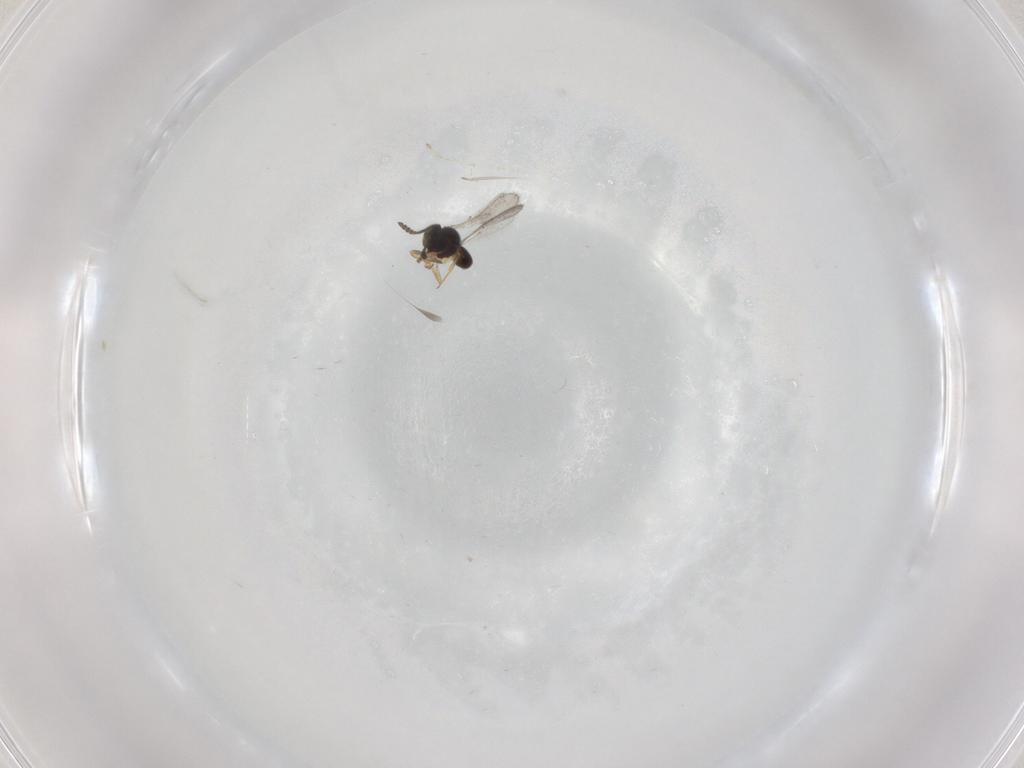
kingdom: Animalia
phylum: Arthropoda
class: Insecta
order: Hymenoptera
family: Scelionidae
